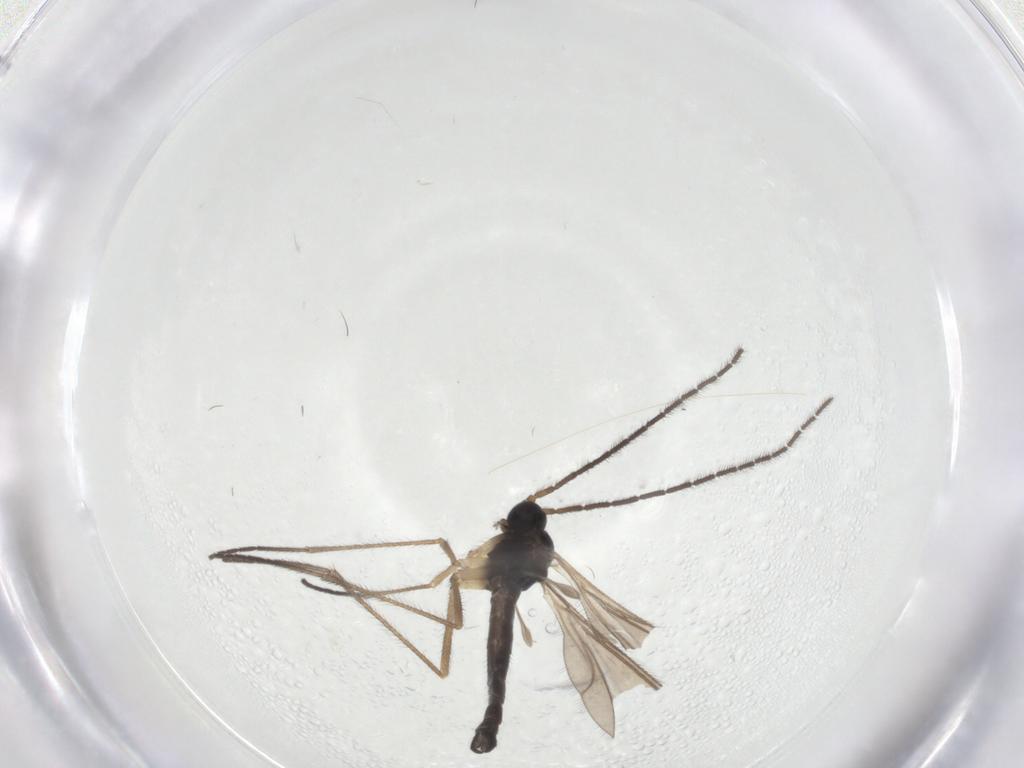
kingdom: Animalia
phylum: Arthropoda
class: Insecta
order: Diptera
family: Sciaridae
